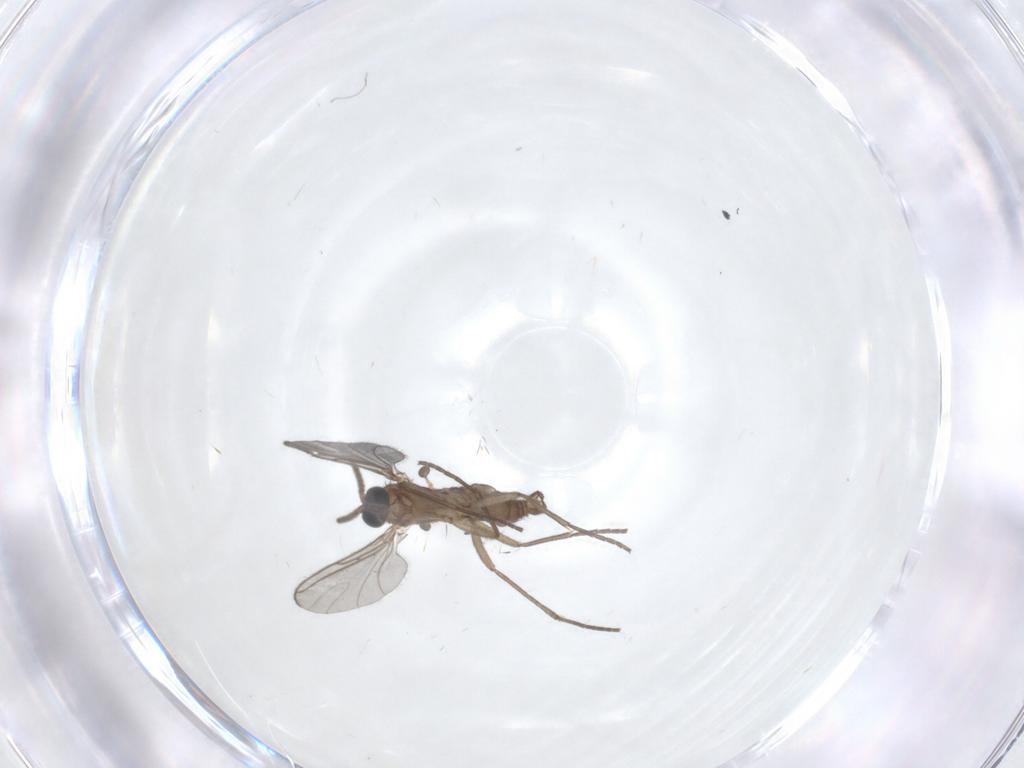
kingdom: Animalia
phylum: Arthropoda
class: Insecta
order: Diptera
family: Sciaridae
